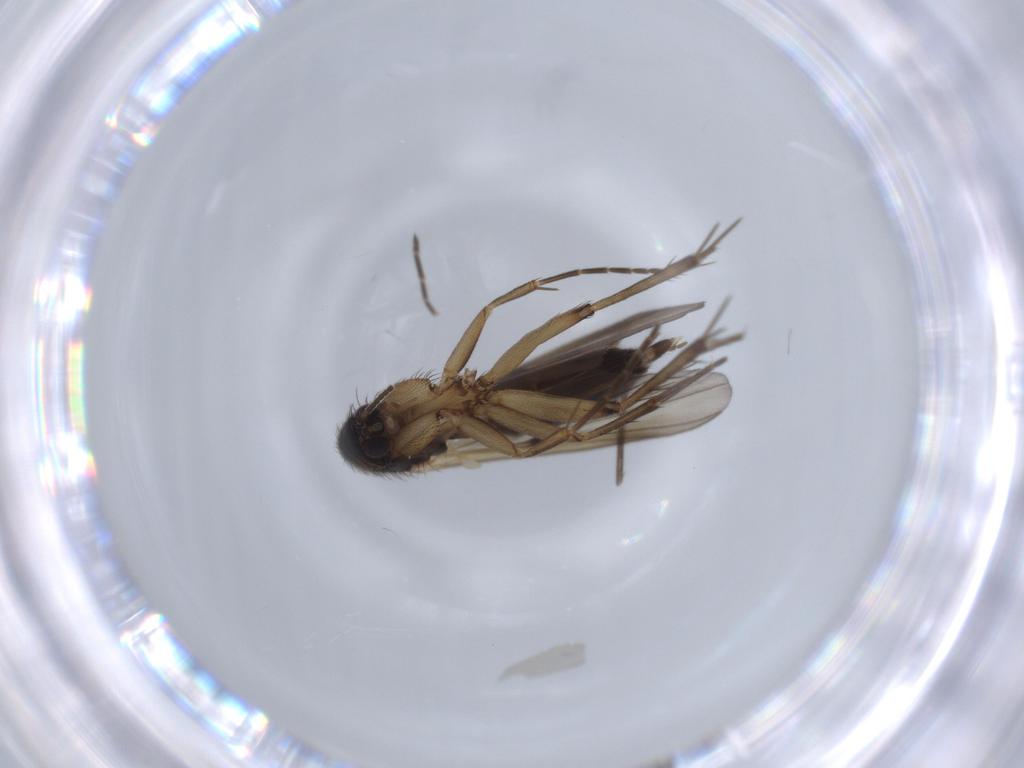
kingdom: Animalia
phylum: Arthropoda
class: Insecta
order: Diptera
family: Mycetophilidae
